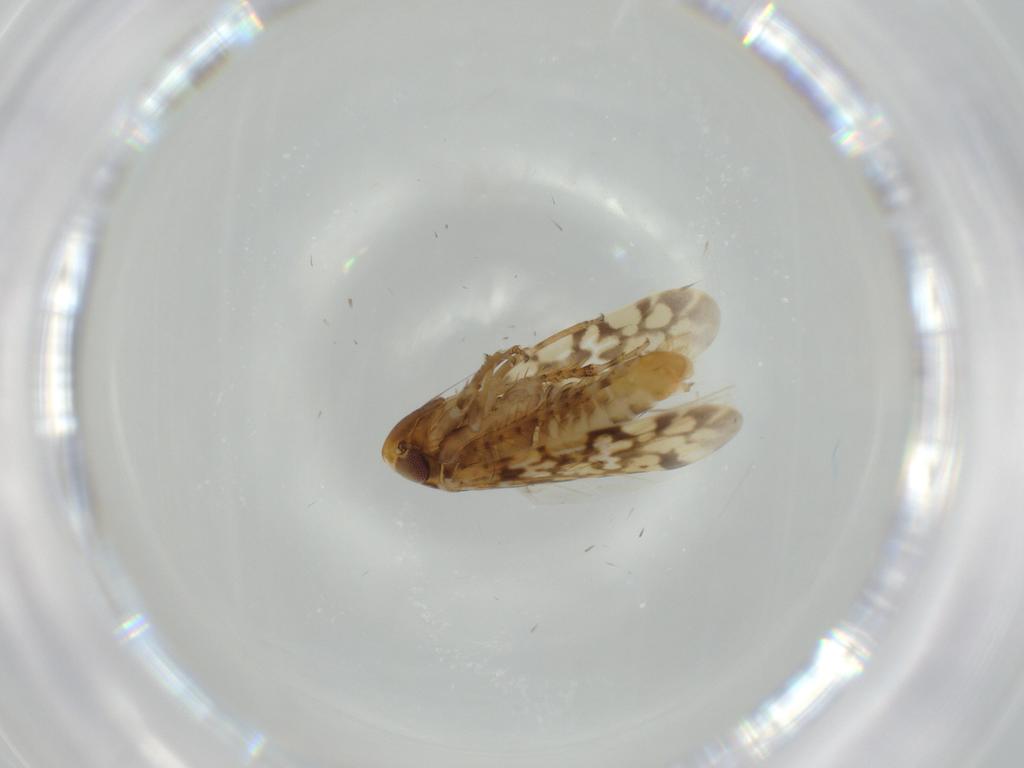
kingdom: Animalia
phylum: Arthropoda
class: Insecta
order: Hemiptera
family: Cicadellidae
